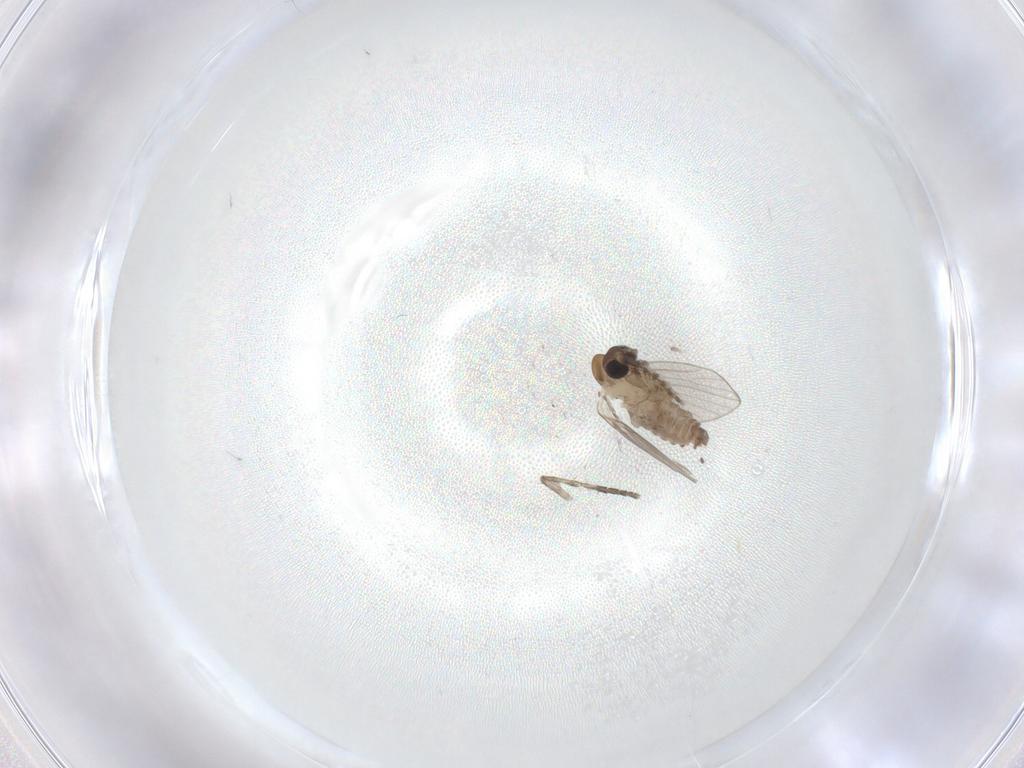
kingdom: Animalia
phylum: Arthropoda
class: Insecta
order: Diptera
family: Psychodidae
